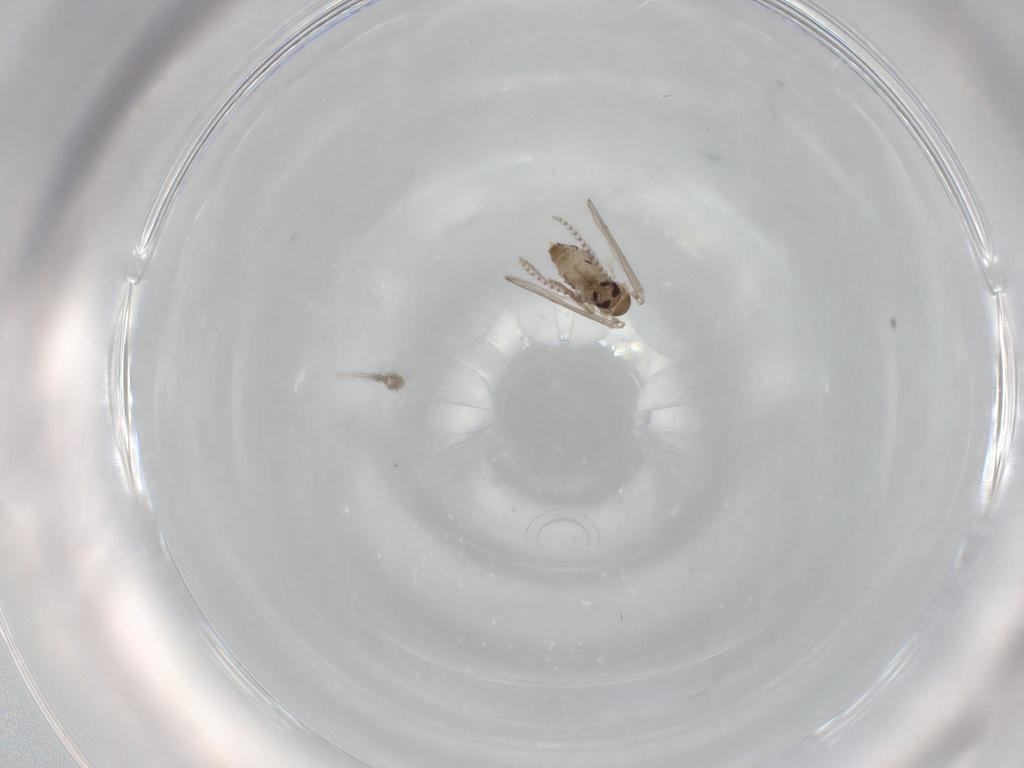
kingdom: Animalia
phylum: Arthropoda
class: Insecta
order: Diptera
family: Psychodidae
